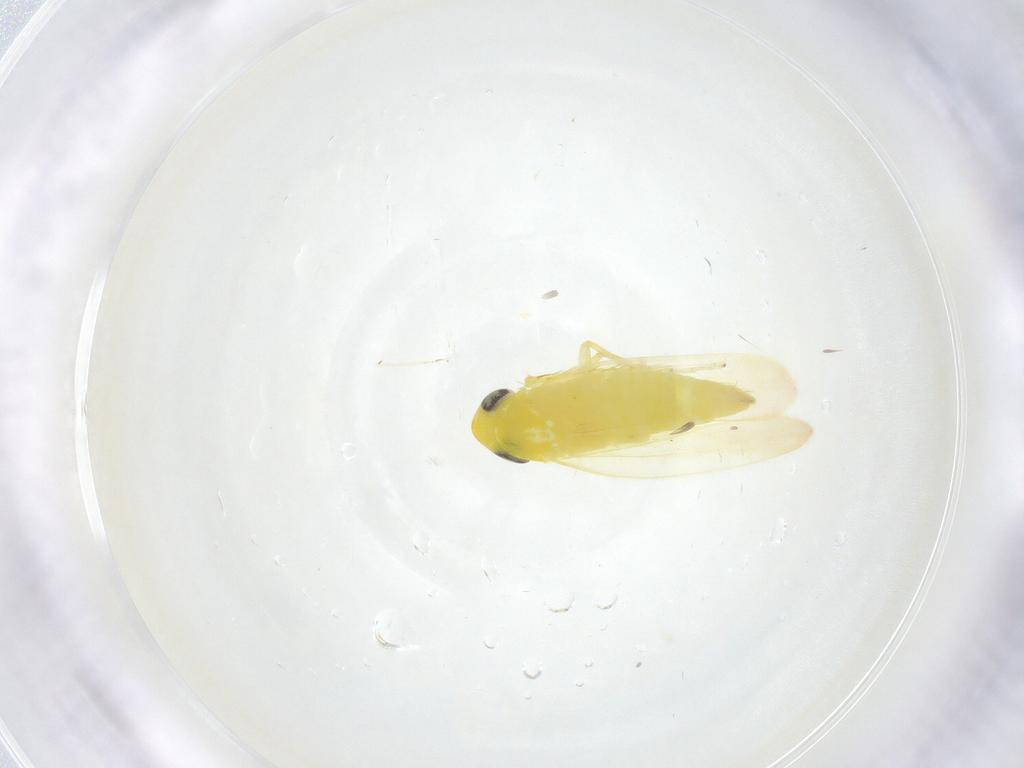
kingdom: Animalia
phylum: Arthropoda
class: Insecta
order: Hemiptera
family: Cicadellidae
